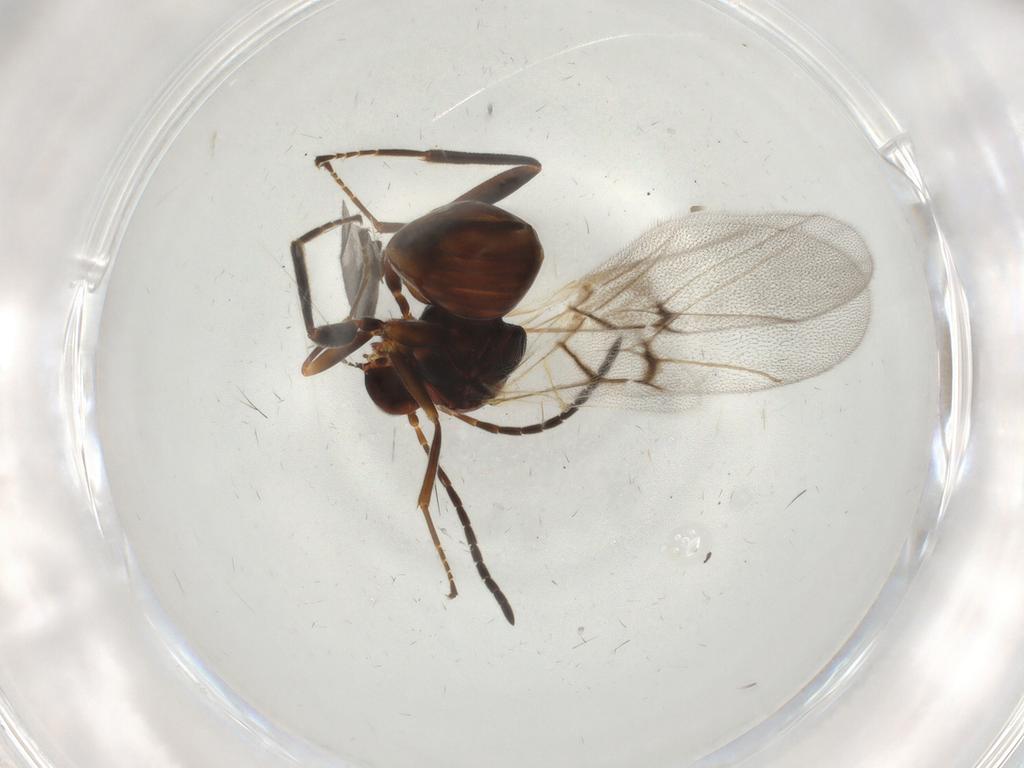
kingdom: Animalia
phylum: Arthropoda
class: Insecta
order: Hymenoptera
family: Cynipidae
